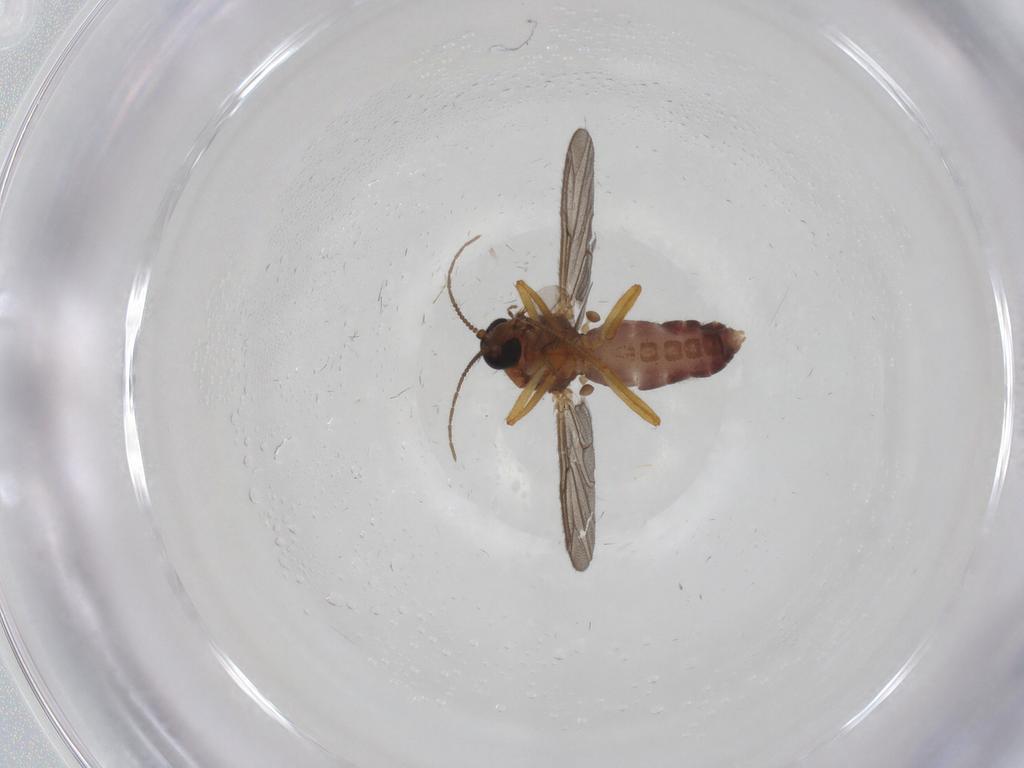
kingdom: Animalia
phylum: Arthropoda
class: Insecta
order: Diptera
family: Ceratopogonidae
